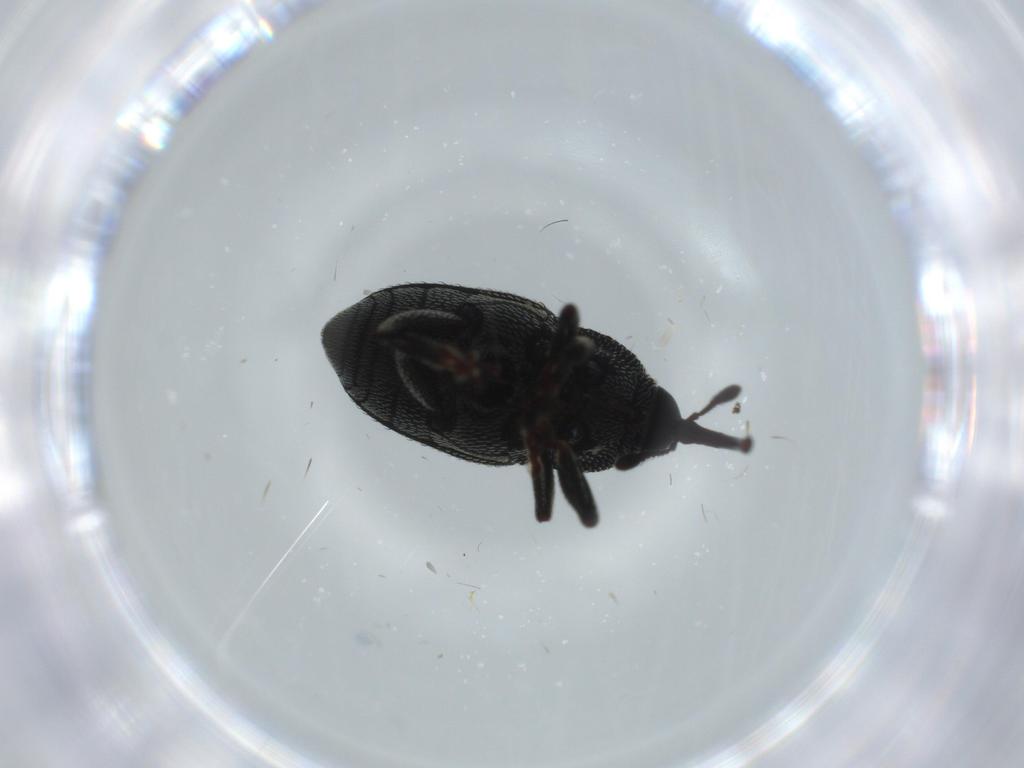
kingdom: Animalia
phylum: Arthropoda
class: Insecta
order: Coleoptera
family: Curculionidae
